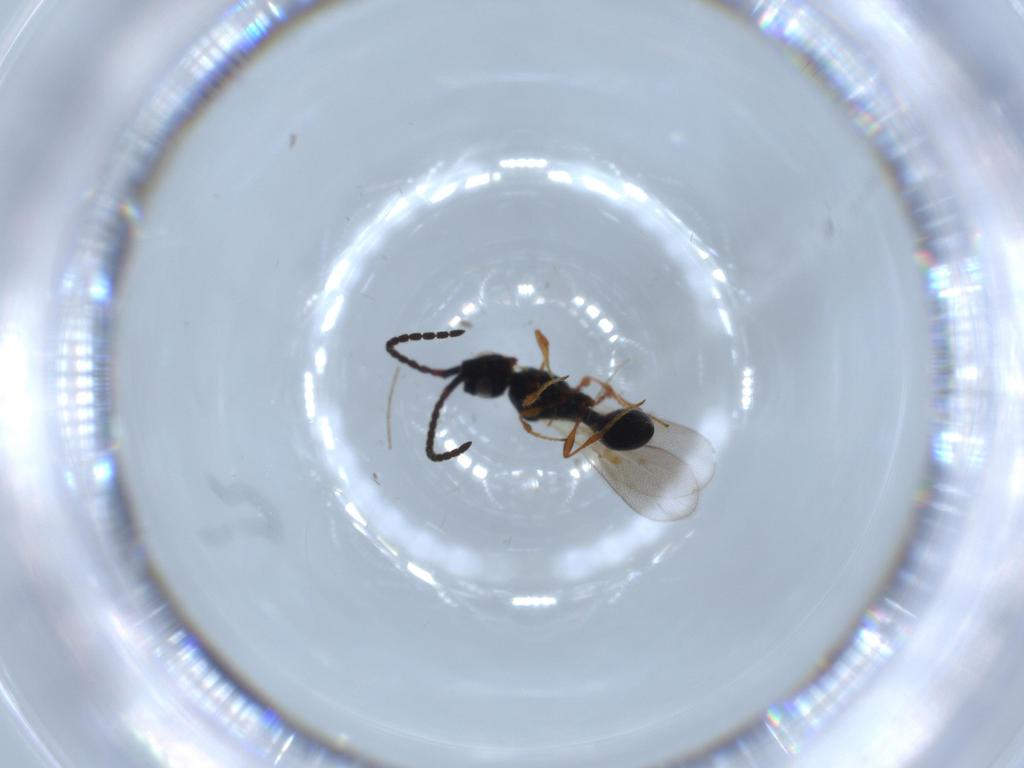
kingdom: Animalia
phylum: Arthropoda
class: Insecta
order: Hymenoptera
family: Diapriidae
